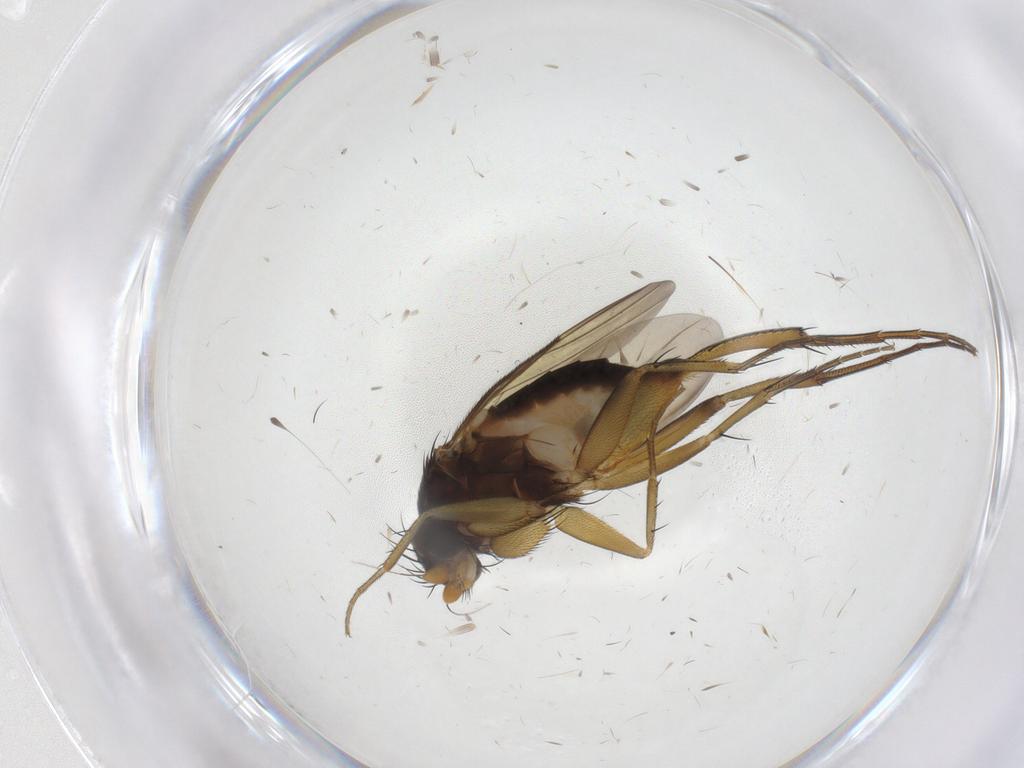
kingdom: Animalia
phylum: Arthropoda
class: Insecta
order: Diptera
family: Phoridae
